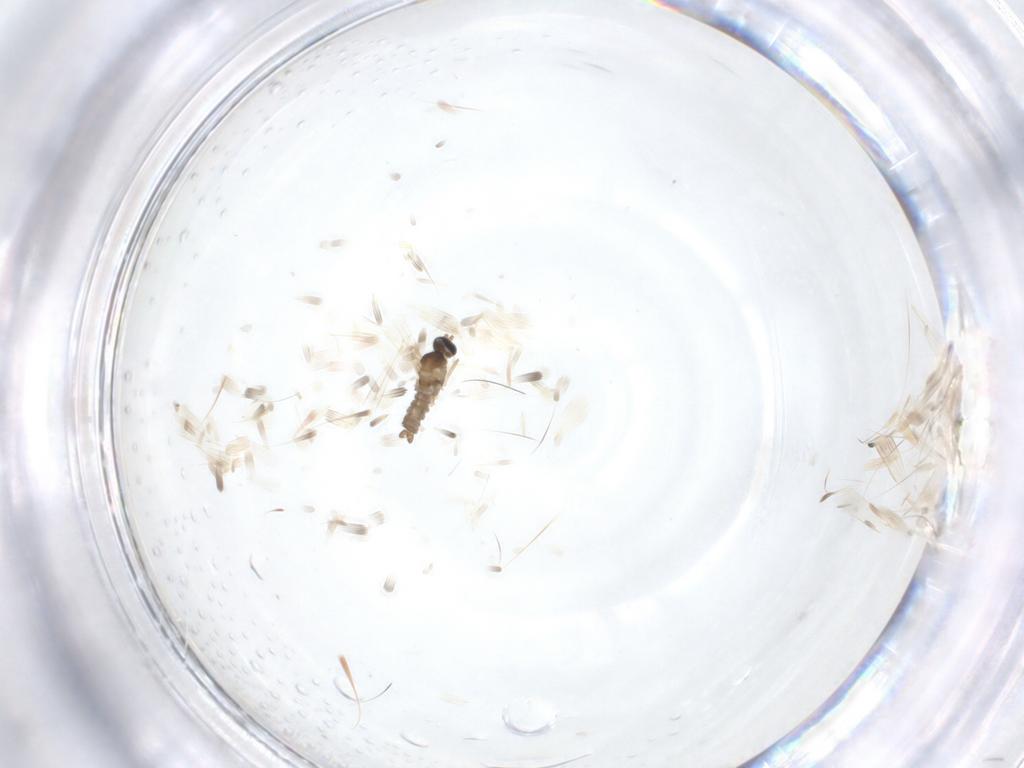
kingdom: Animalia
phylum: Arthropoda
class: Insecta
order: Diptera
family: Cecidomyiidae
